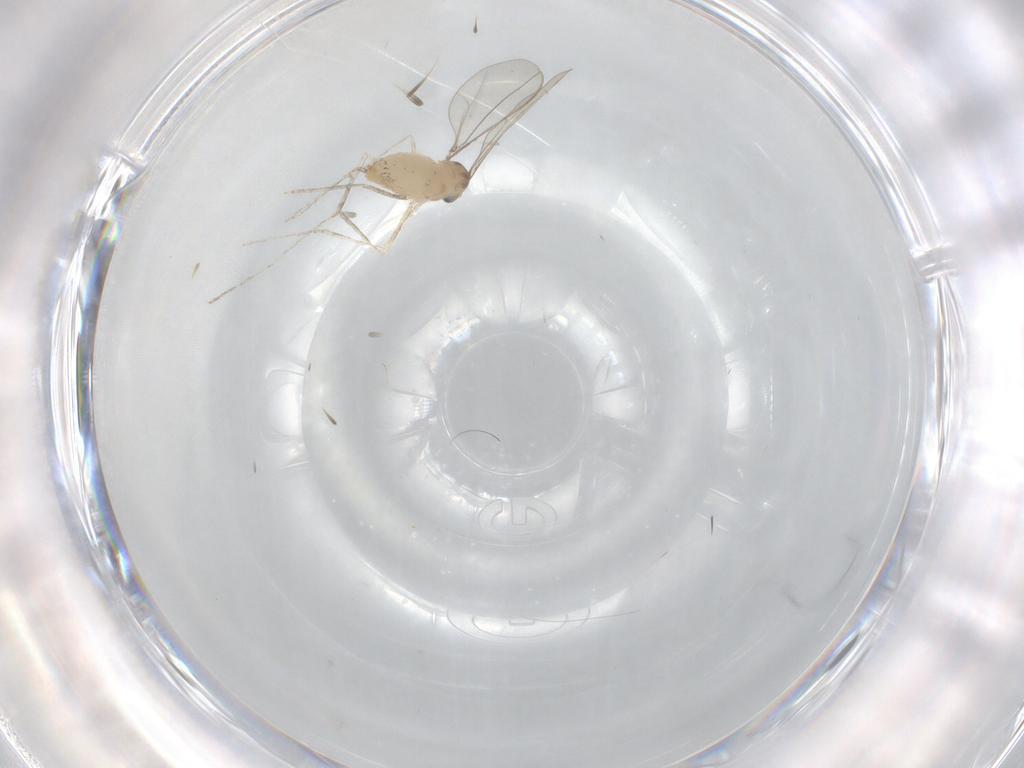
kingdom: Animalia
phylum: Arthropoda
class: Insecta
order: Diptera
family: Cecidomyiidae
